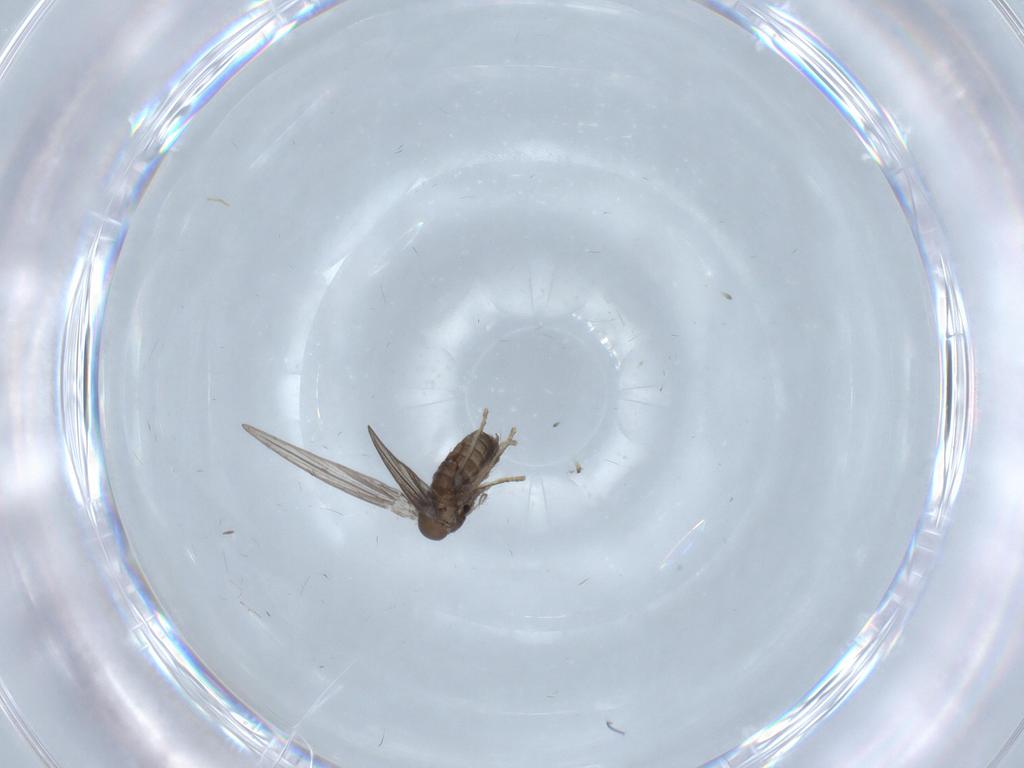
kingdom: Animalia
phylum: Arthropoda
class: Insecta
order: Diptera
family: Psychodidae
